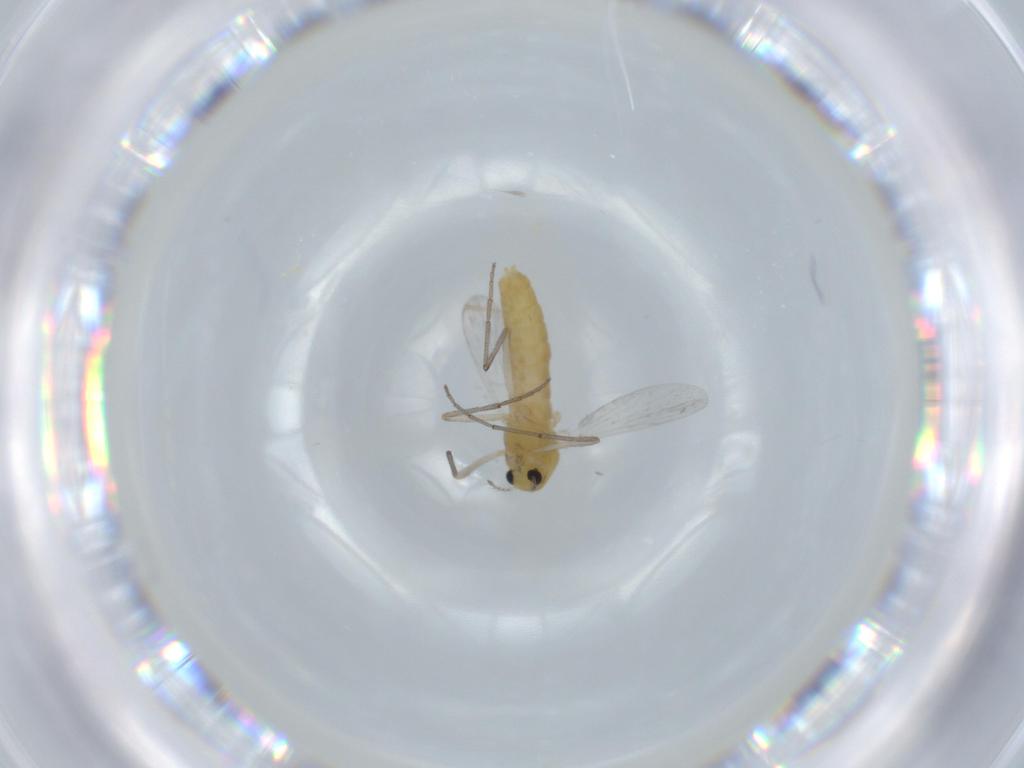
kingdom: Animalia
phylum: Arthropoda
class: Insecta
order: Diptera
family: Chironomidae
